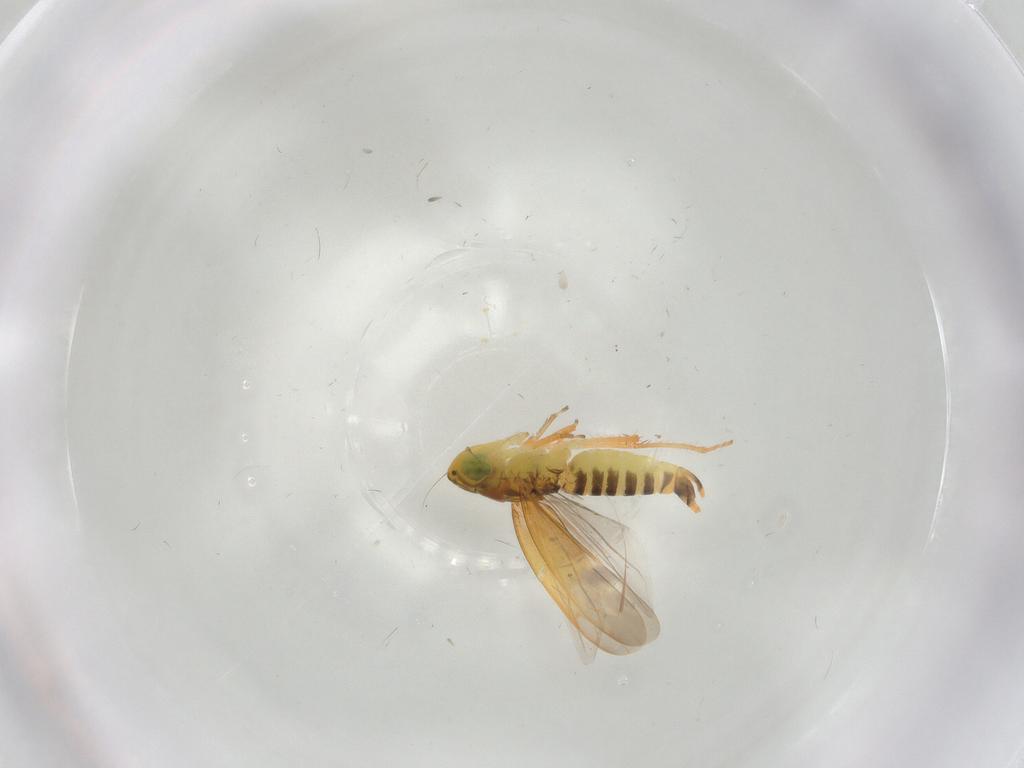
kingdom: Animalia
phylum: Arthropoda
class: Insecta
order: Hemiptera
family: Cicadellidae
